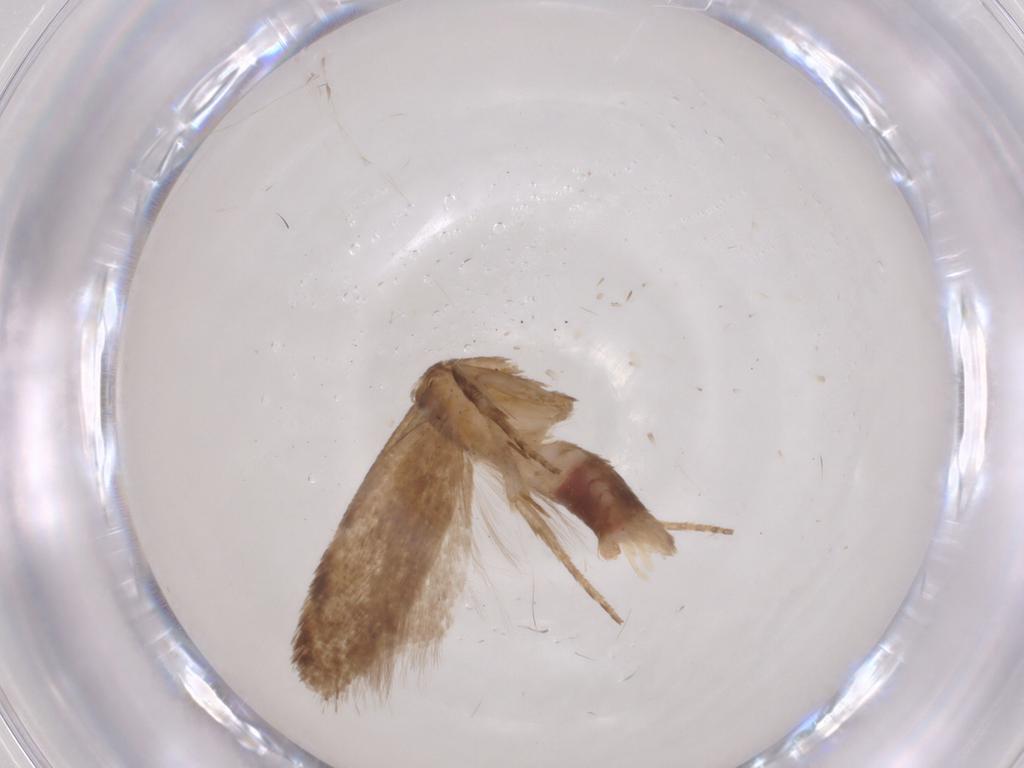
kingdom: Animalia
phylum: Arthropoda
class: Insecta
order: Lepidoptera
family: Gelechiidae
